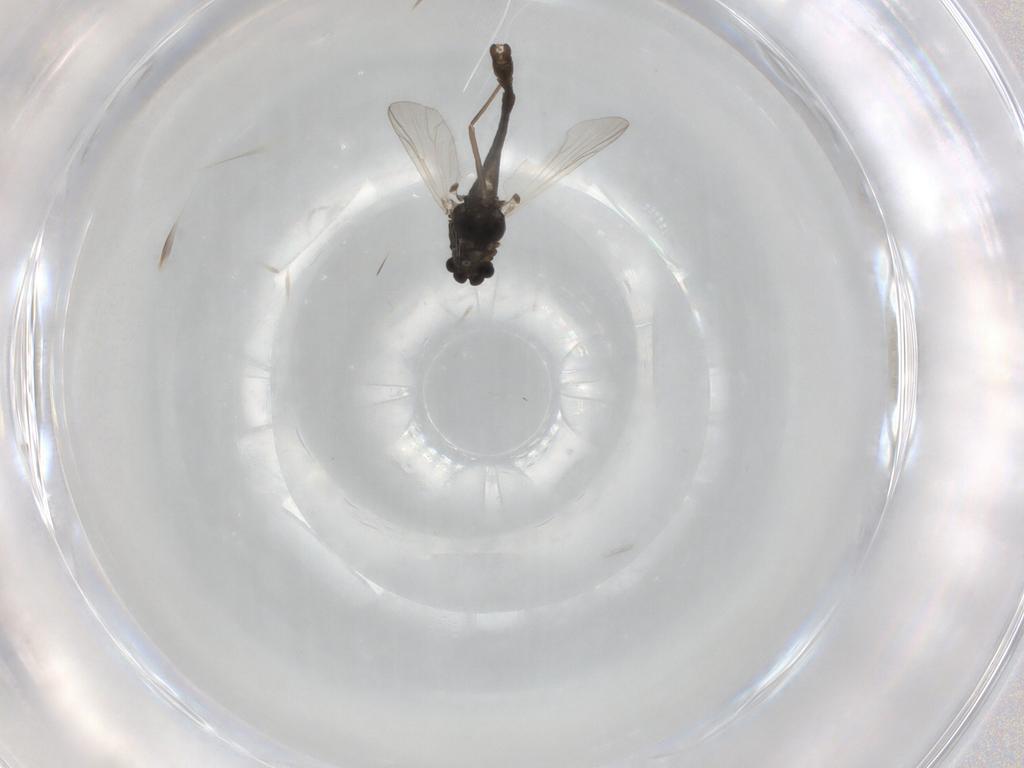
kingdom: Animalia
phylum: Arthropoda
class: Insecta
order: Diptera
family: Chironomidae
